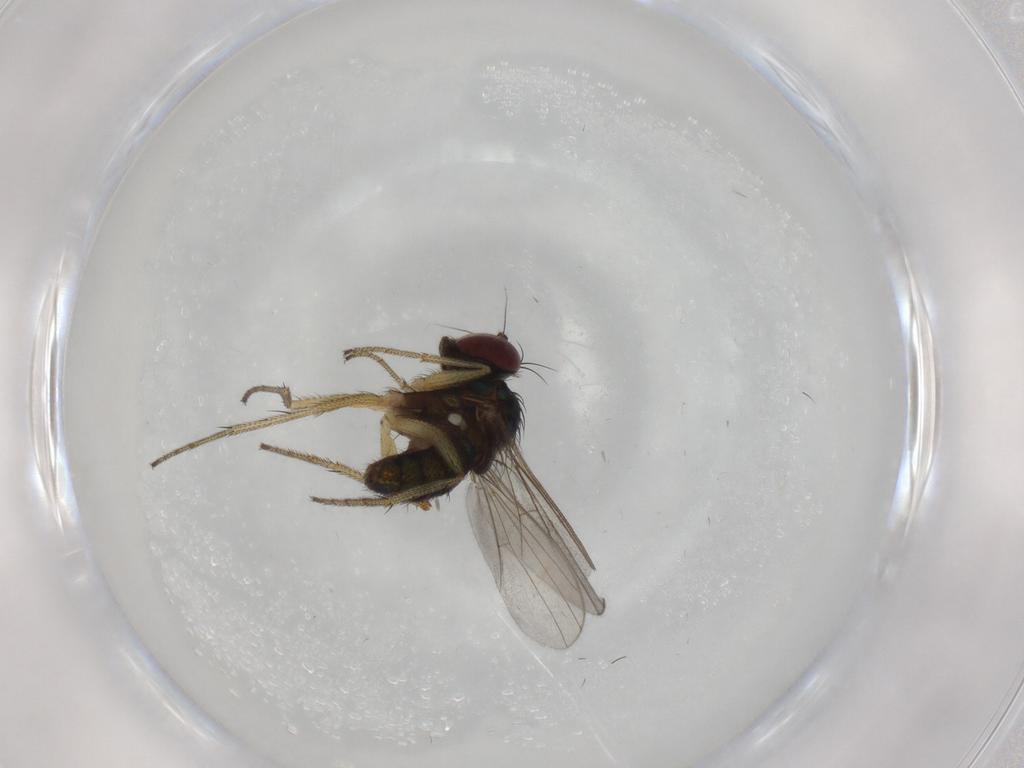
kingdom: Animalia
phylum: Arthropoda
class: Insecta
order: Diptera
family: Dolichopodidae
